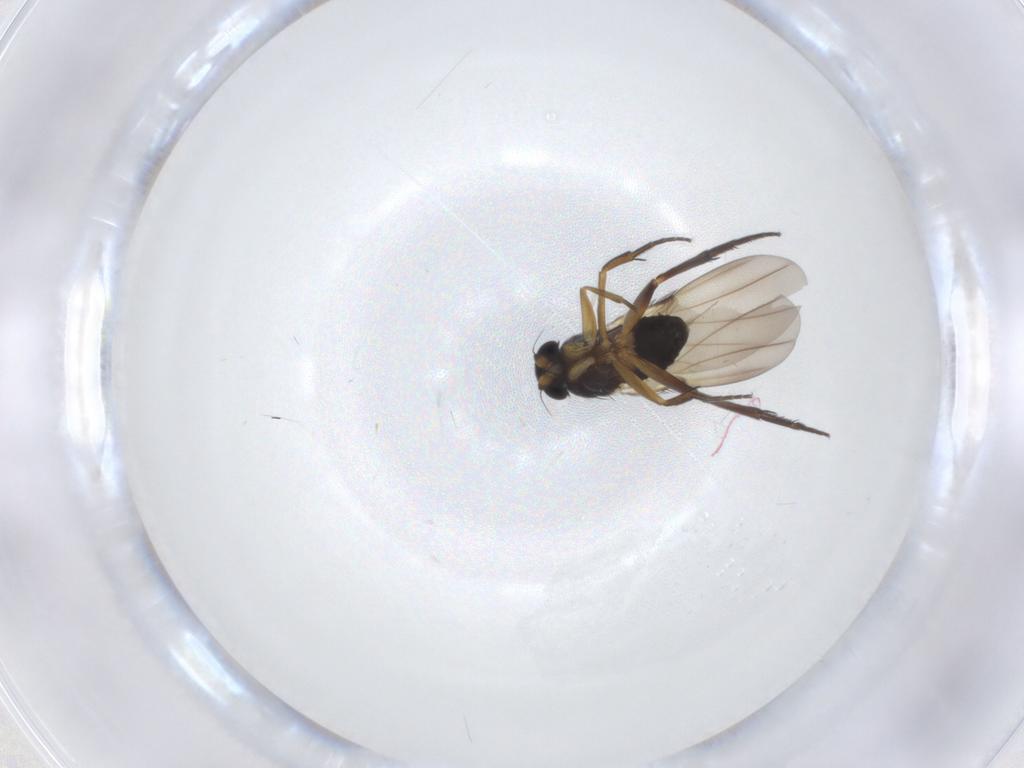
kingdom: Animalia
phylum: Arthropoda
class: Insecta
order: Diptera
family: Phoridae
